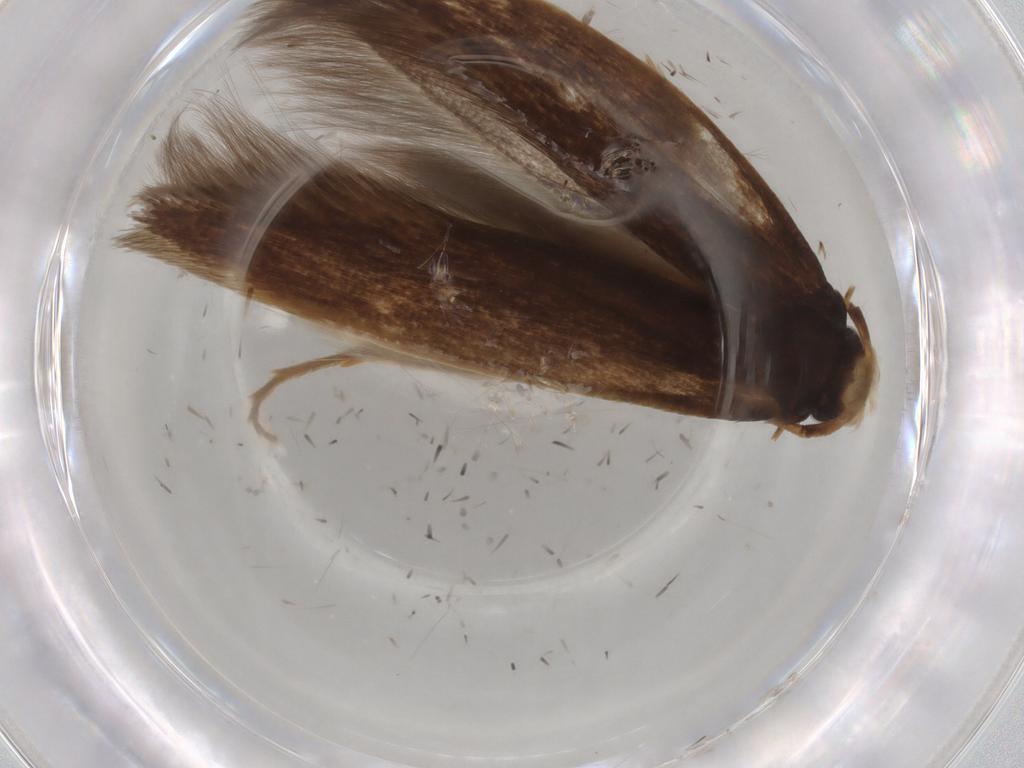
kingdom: Animalia
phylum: Arthropoda
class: Insecta
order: Lepidoptera
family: Tineidae
